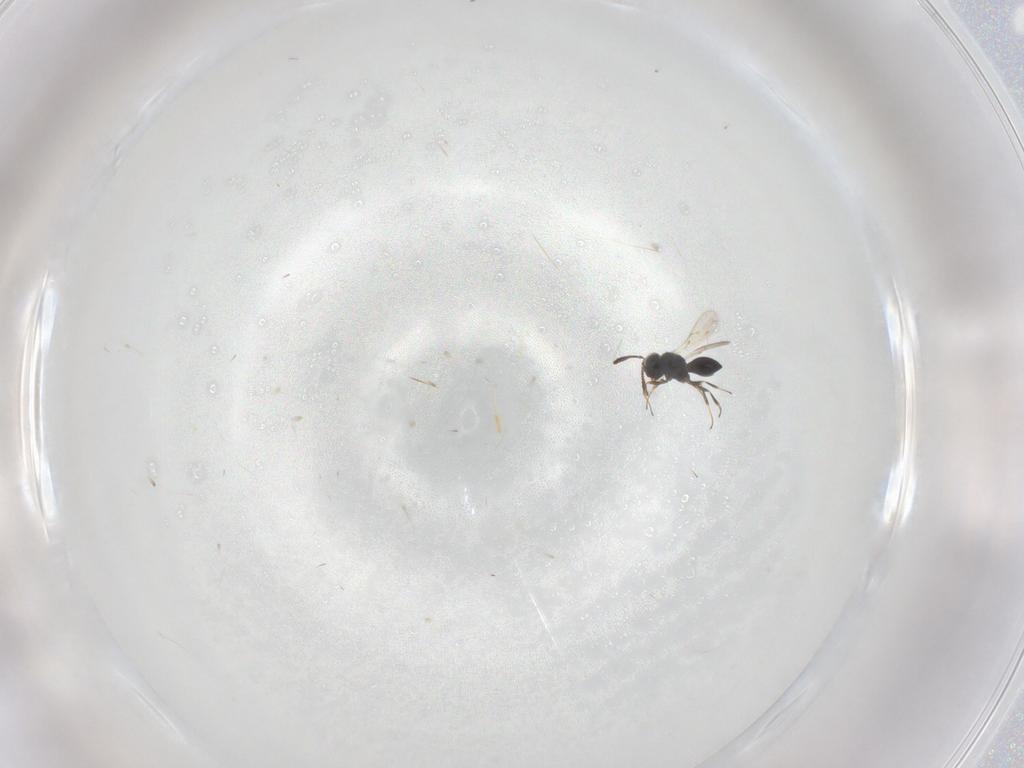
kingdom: Animalia
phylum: Arthropoda
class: Insecta
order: Hymenoptera
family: Scelionidae
